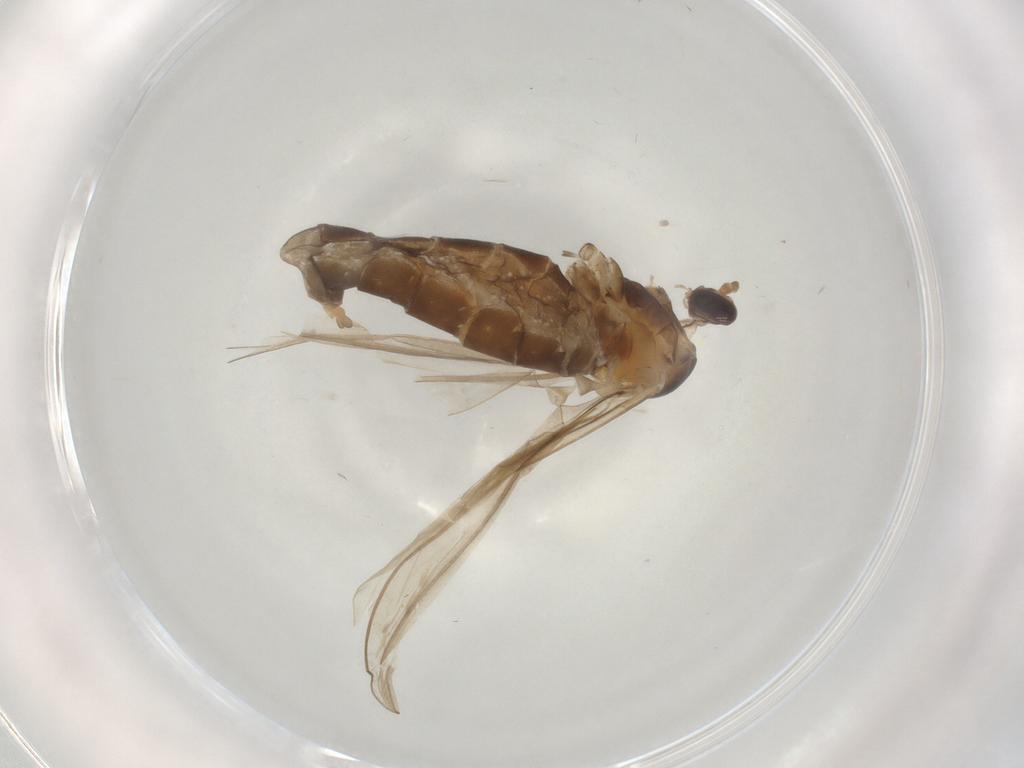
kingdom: Animalia
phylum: Arthropoda
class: Insecta
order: Diptera
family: Cecidomyiidae
